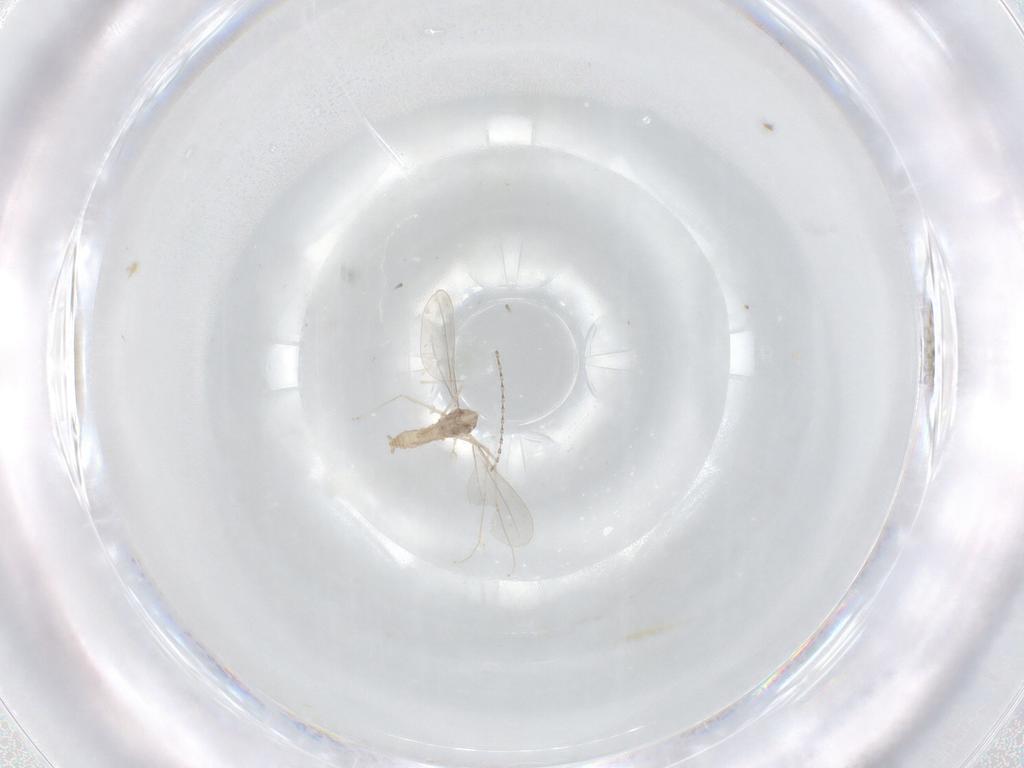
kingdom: Animalia
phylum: Arthropoda
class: Insecta
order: Diptera
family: Cecidomyiidae
